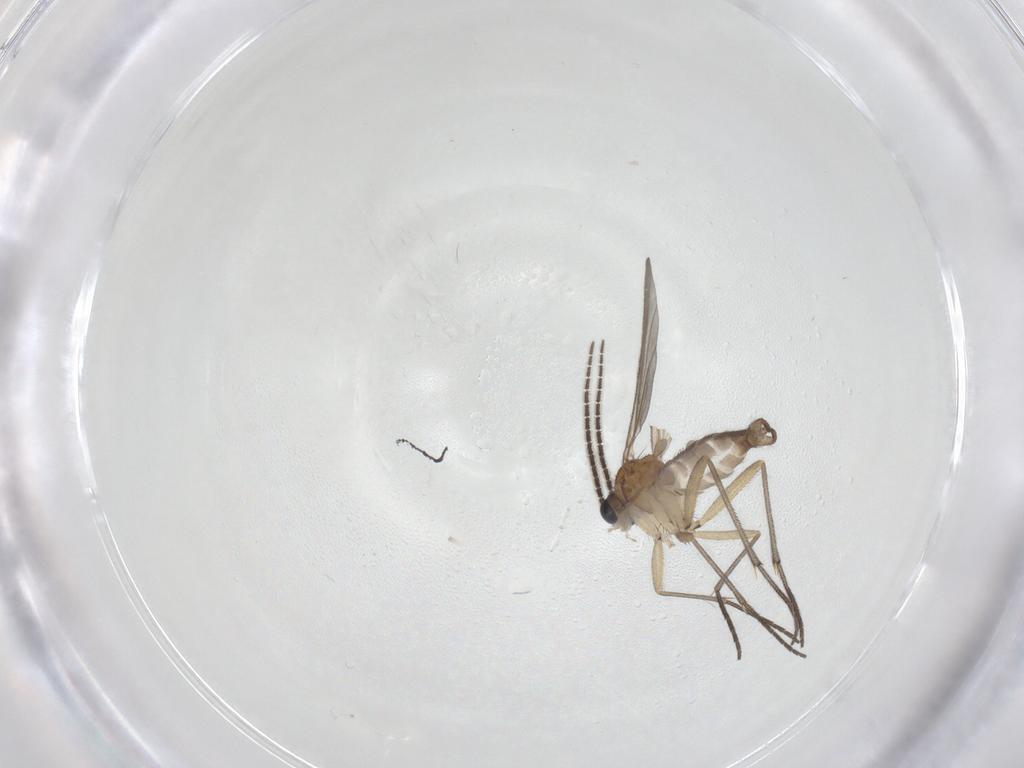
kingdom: Animalia
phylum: Arthropoda
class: Insecta
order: Diptera
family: Sciaridae
